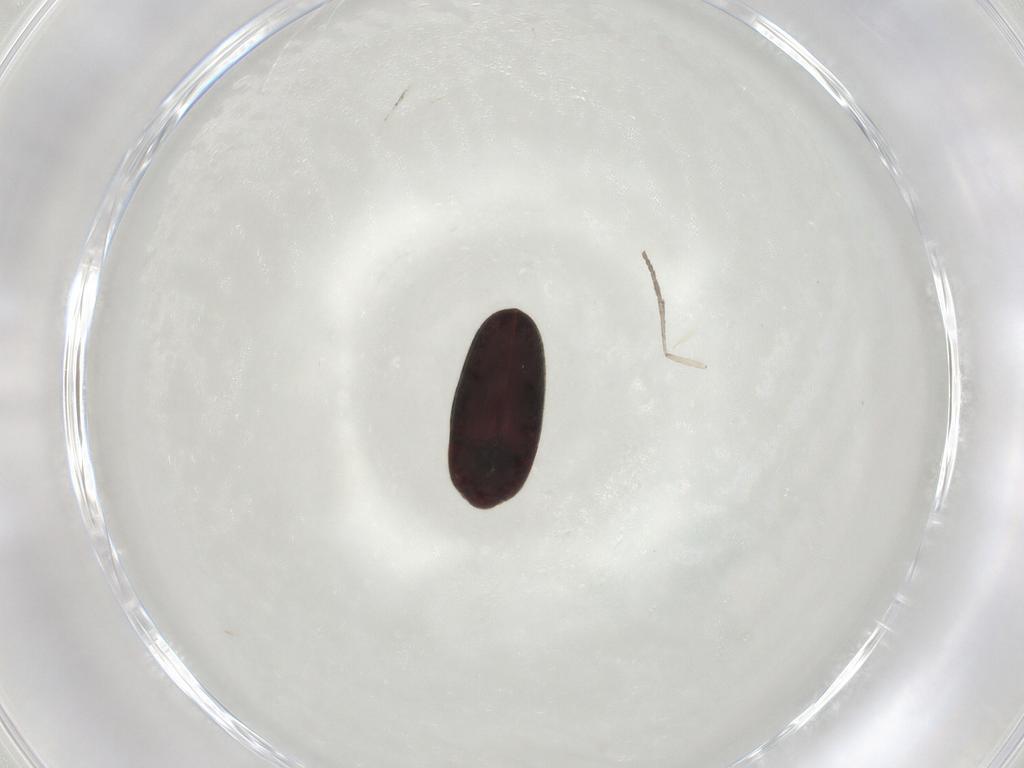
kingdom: Animalia
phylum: Arthropoda
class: Insecta
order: Coleoptera
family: Throscidae
